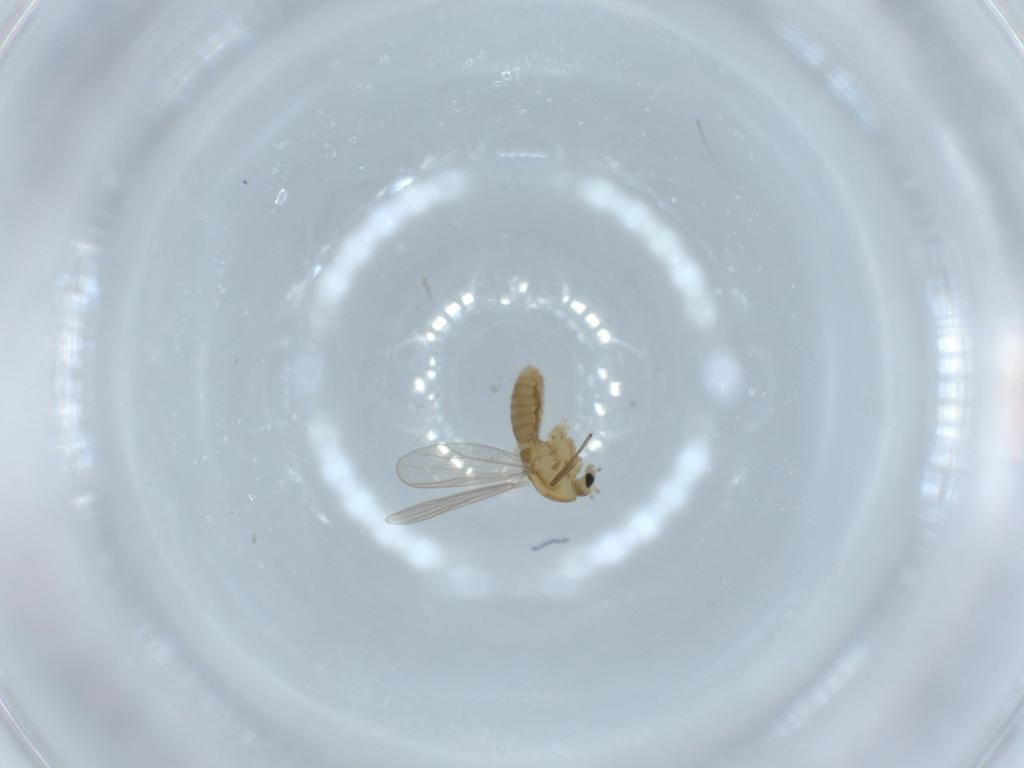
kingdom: Animalia
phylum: Arthropoda
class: Insecta
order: Diptera
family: Chironomidae
